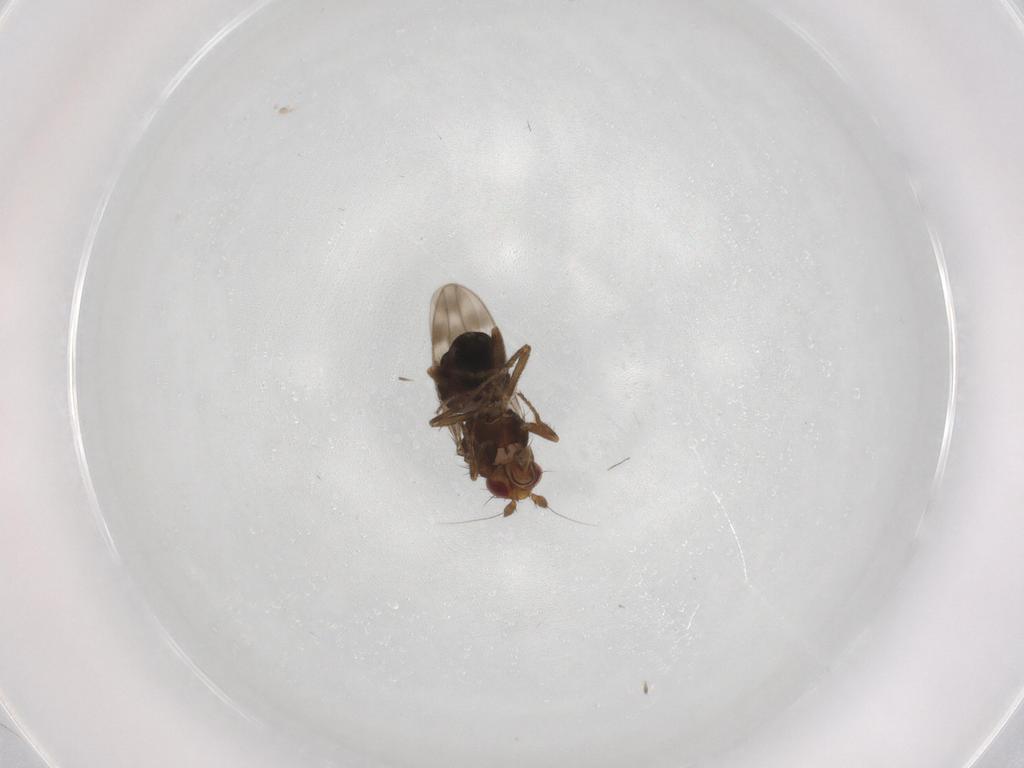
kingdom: Animalia
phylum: Arthropoda
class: Insecta
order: Diptera
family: Sphaeroceridae
